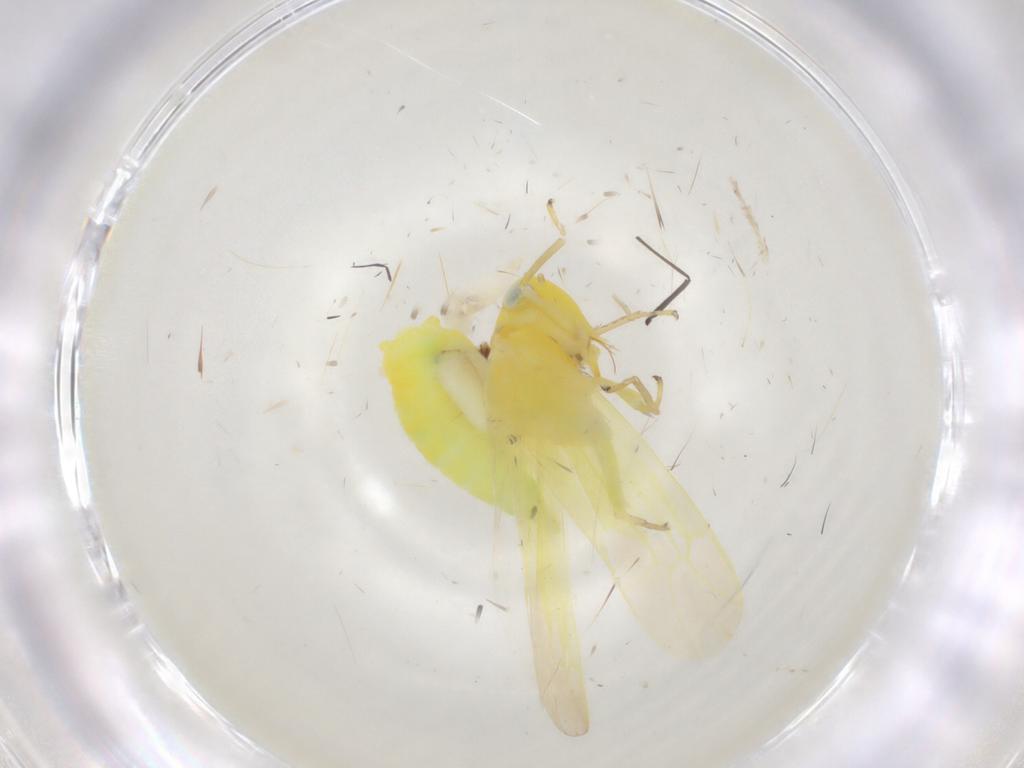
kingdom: Animalia
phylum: Arthropoda
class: Insecta
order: Hemiptera
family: Cicadellidae
